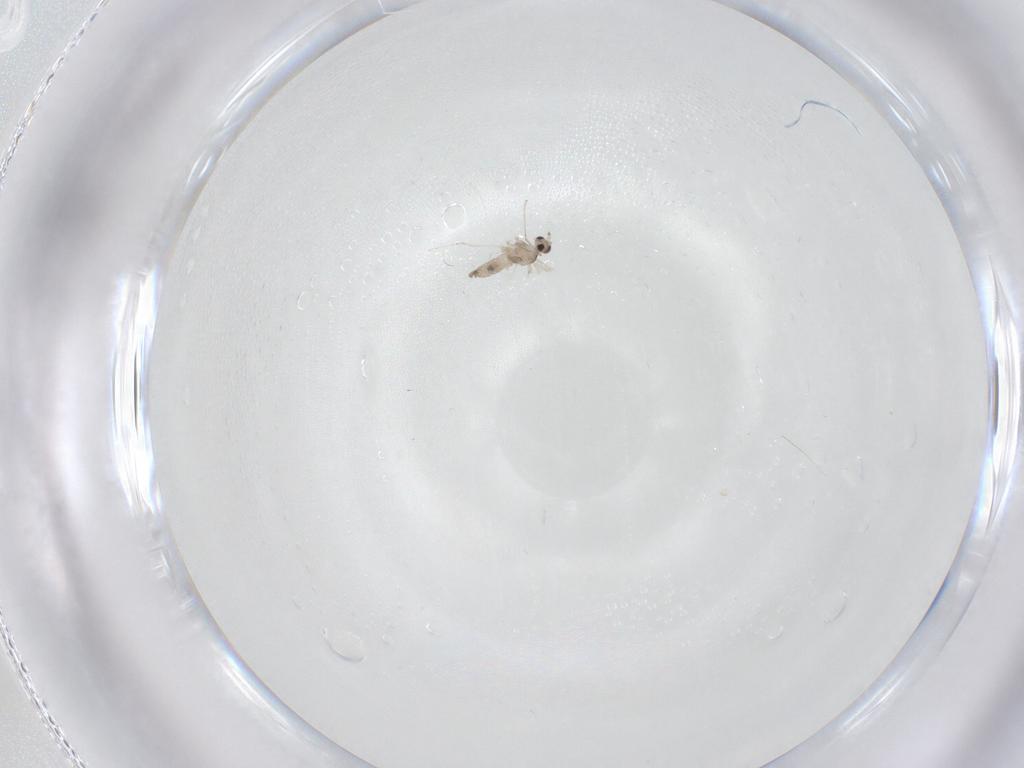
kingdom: Animalia
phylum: Arthropoda
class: Insecta
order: Diptera
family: Cecidomyiidae
